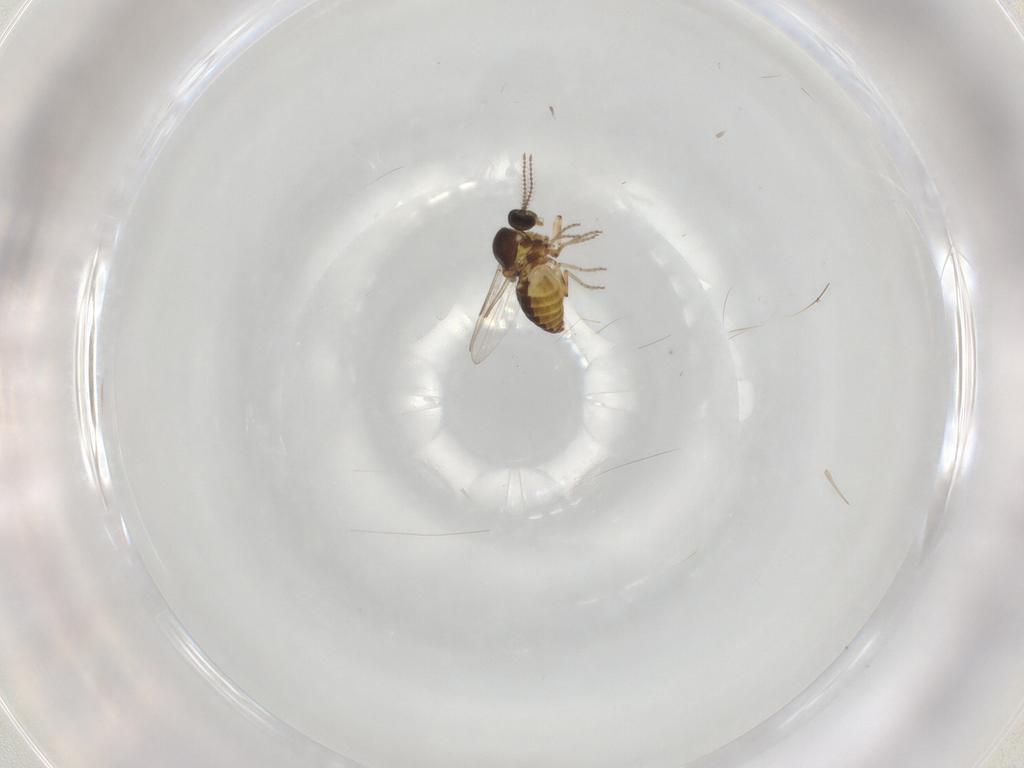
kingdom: Animalia
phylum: Arthropoda
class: Insecta
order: Diptera
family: Ceratopogonidae
